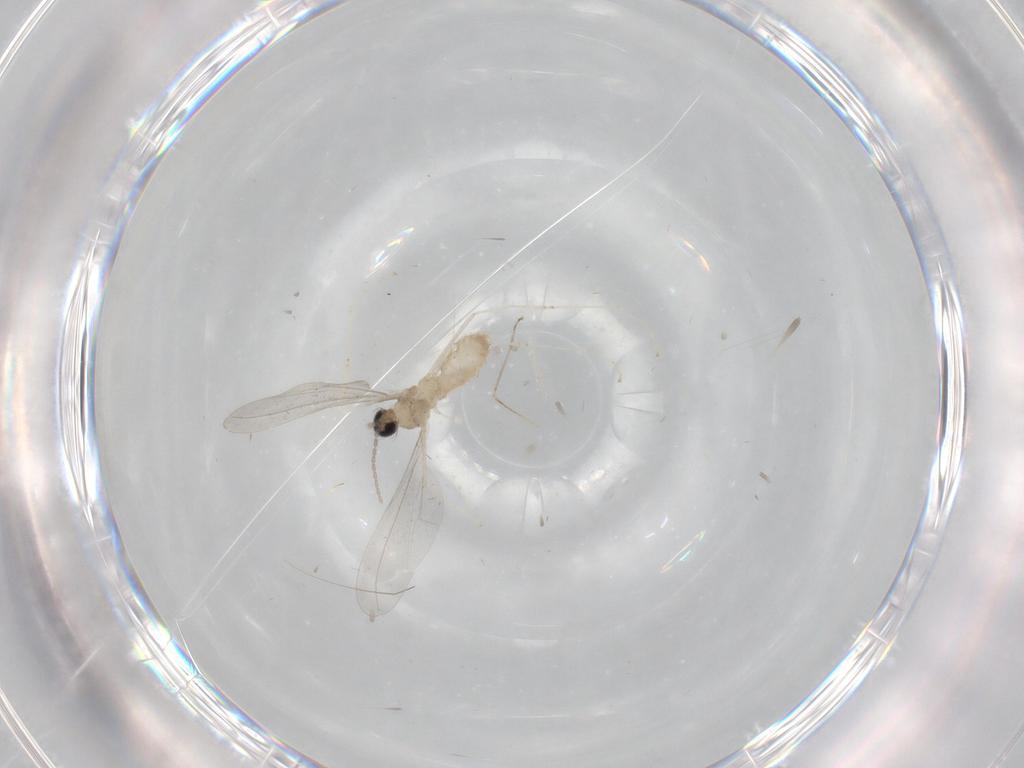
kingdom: Animalia
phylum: Arthropoda
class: Insecta
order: Diptera
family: Cecidomyiidae
